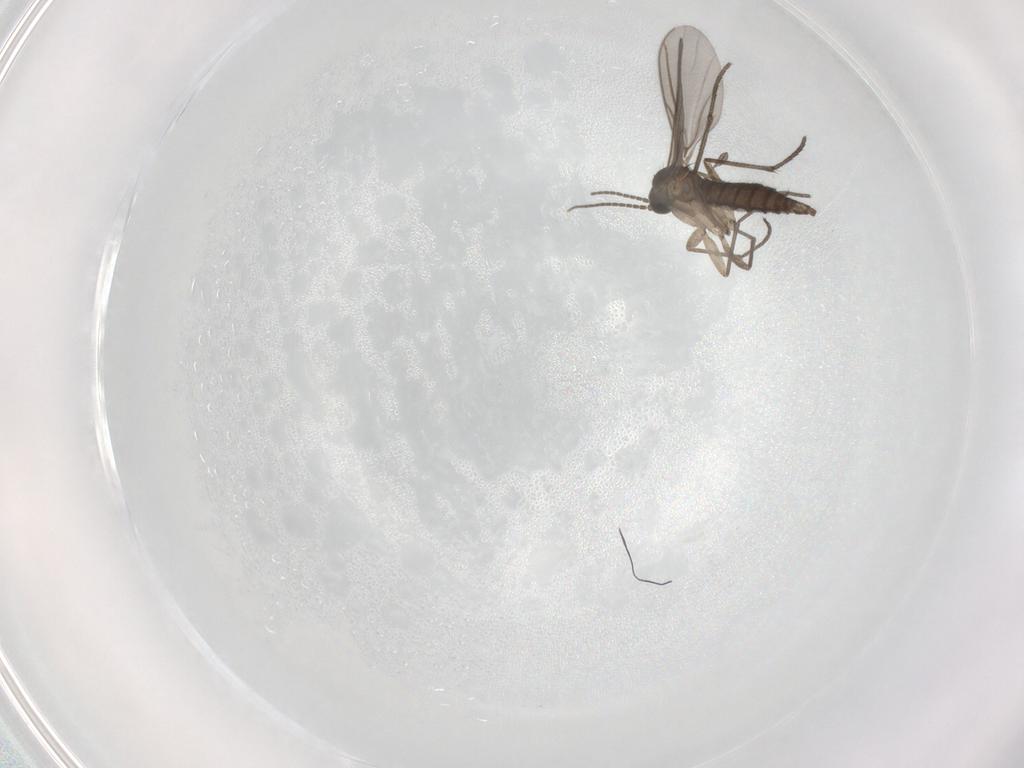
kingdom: Animalia
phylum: Arthropoda
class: Insecta
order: Diptera
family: Sciaridae
